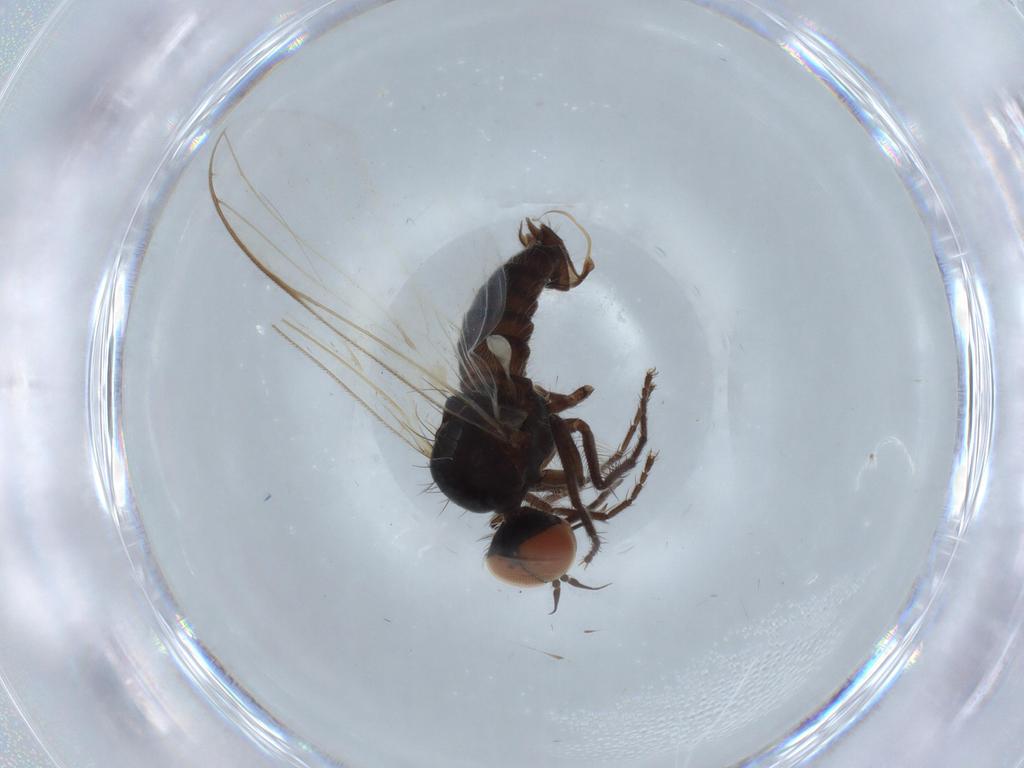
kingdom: Animalia
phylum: Arthropoda
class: Insecta
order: Diptera
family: Empididae
